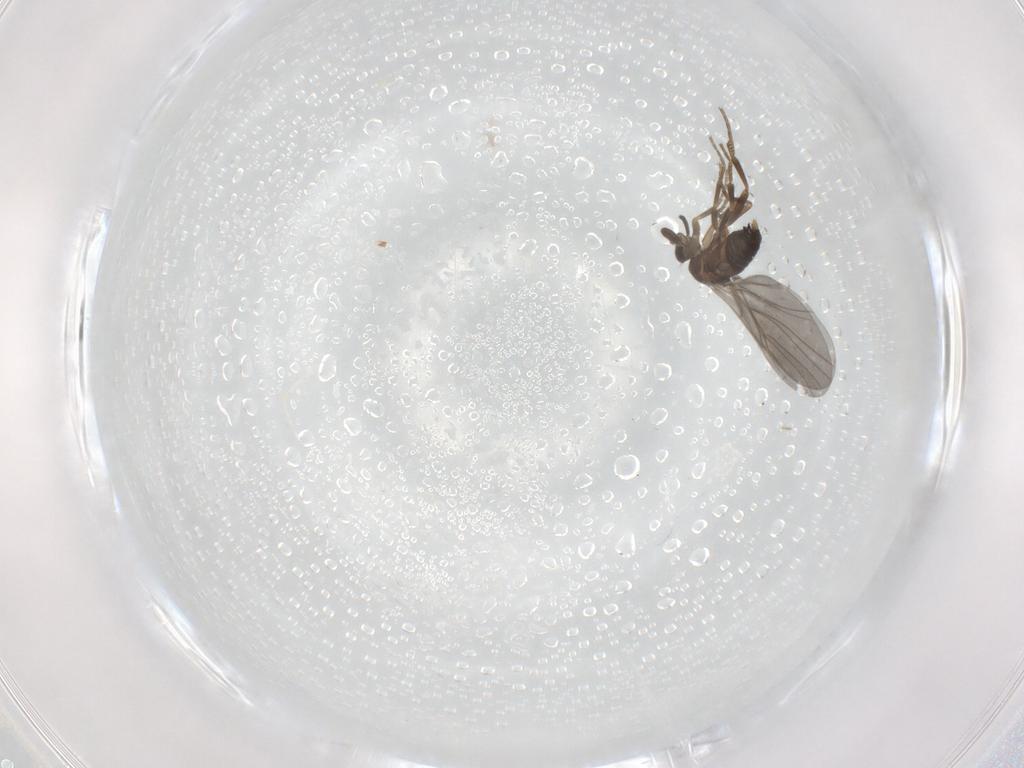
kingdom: Animalia
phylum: Arthropoda
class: Insecta
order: Diptera
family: Phoridae
